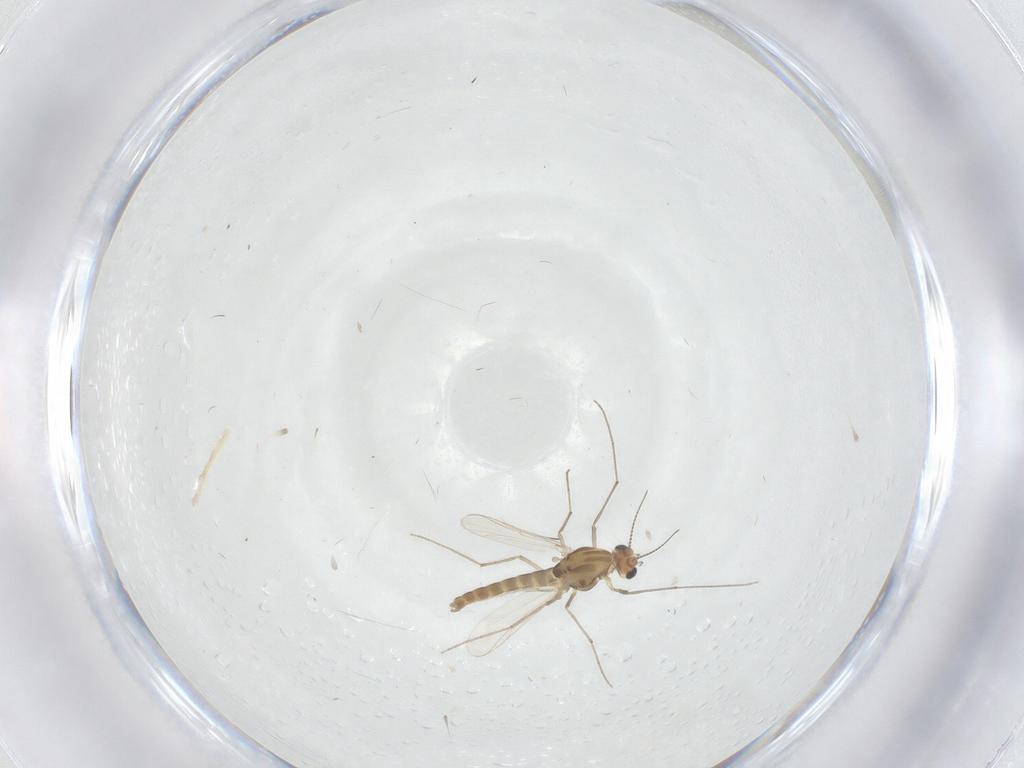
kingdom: Animalia
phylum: Arthropoda
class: Insecta
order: Diptera
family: Chironomidae
